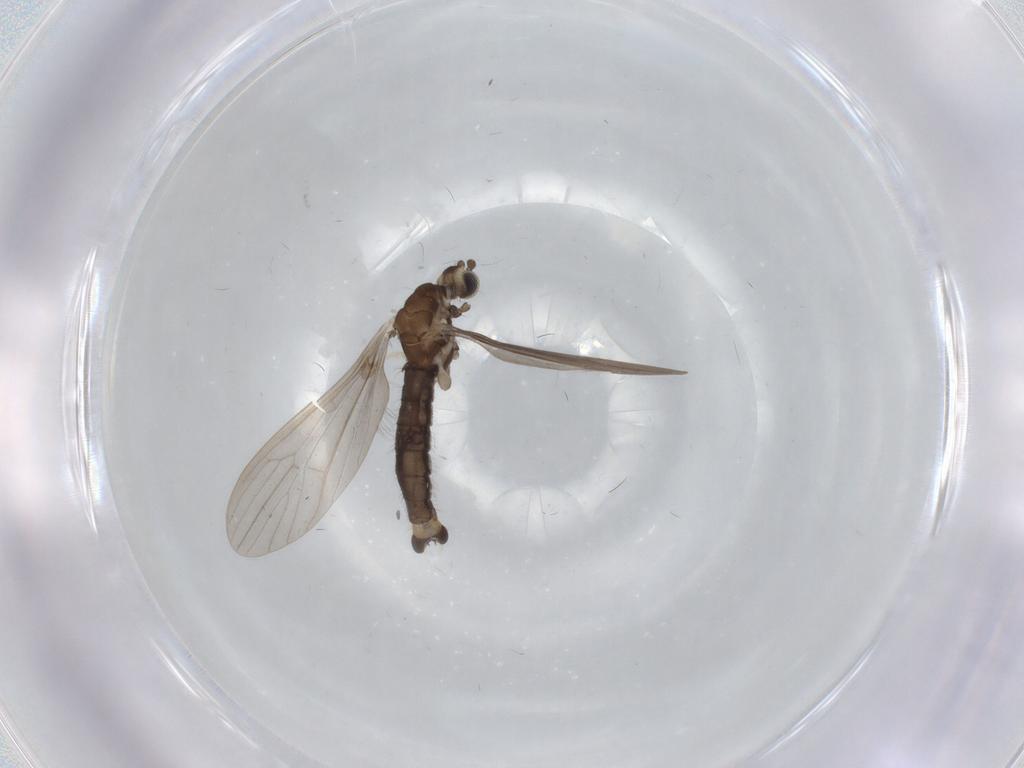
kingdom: Animalia
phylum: Arthropoda
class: Insecta
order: Diptera
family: Limoniidae
